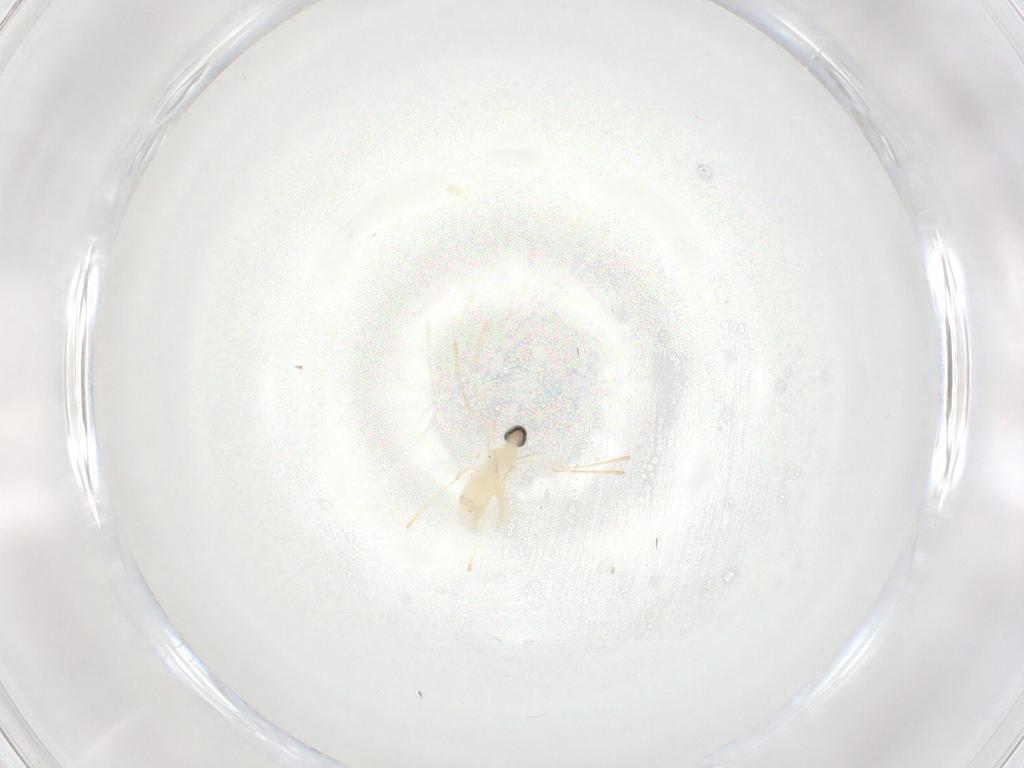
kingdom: Animalia
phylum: Arthropoda
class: Insecta
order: Diptera
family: Cecidomyiidae
